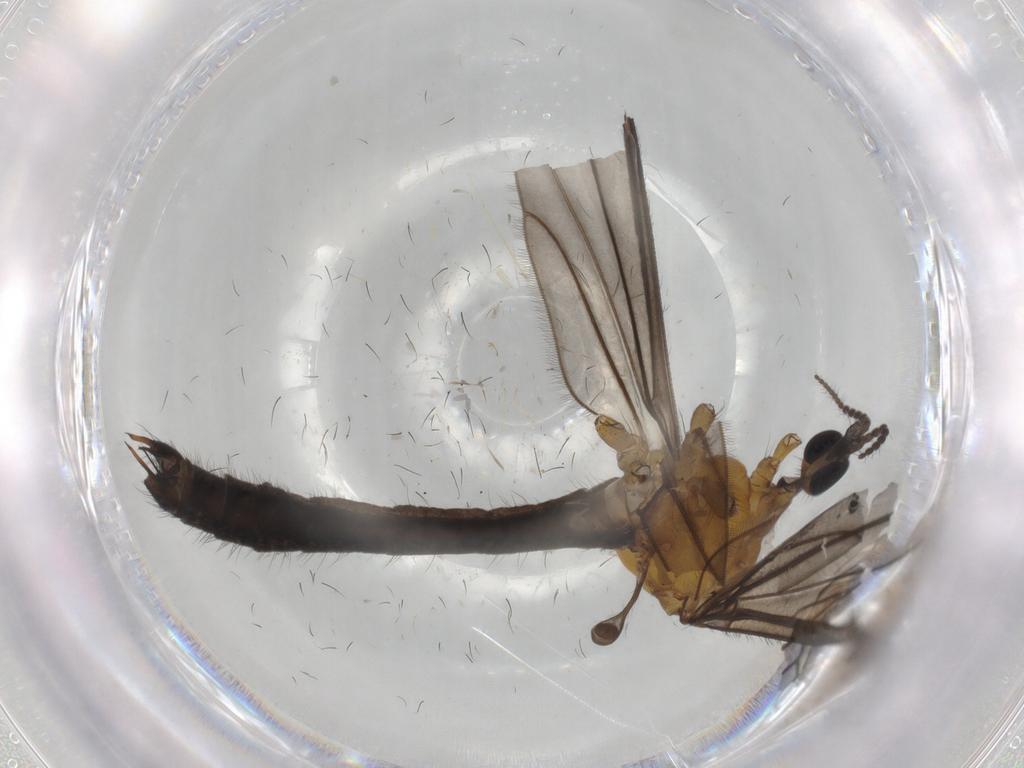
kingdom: Animalia
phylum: Arthropoda
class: Insecta
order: Diptera
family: Limoniidae
